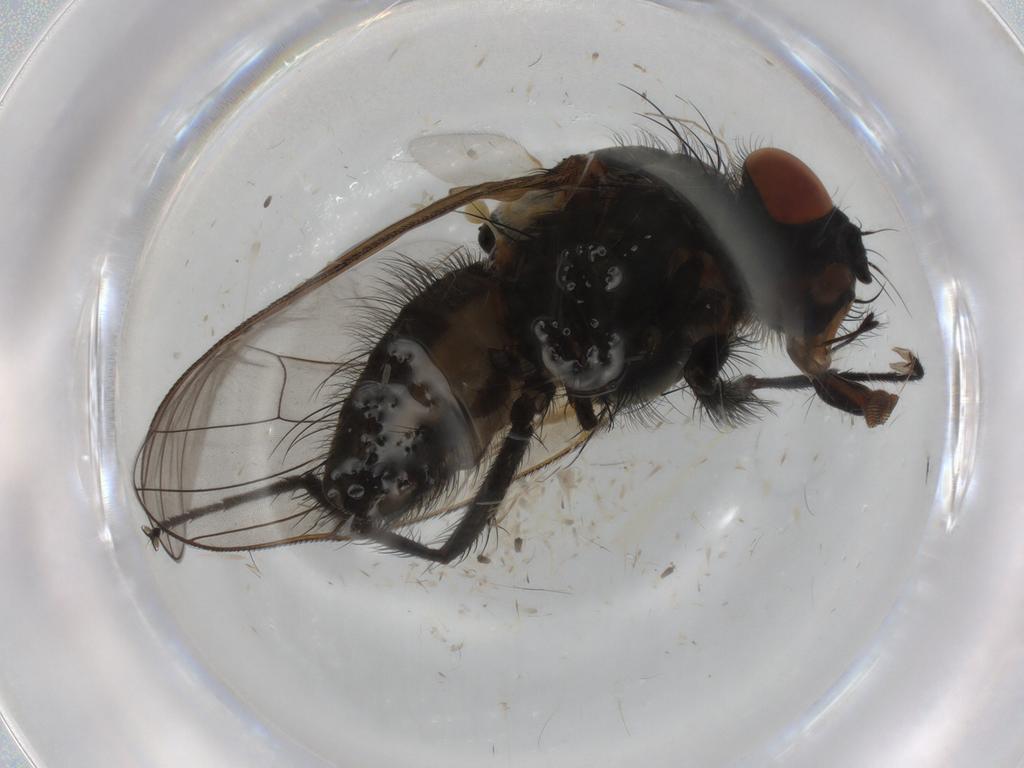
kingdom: Animalia
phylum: Arthropoda
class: Insecta
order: Diptera
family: Anthomyiidae
